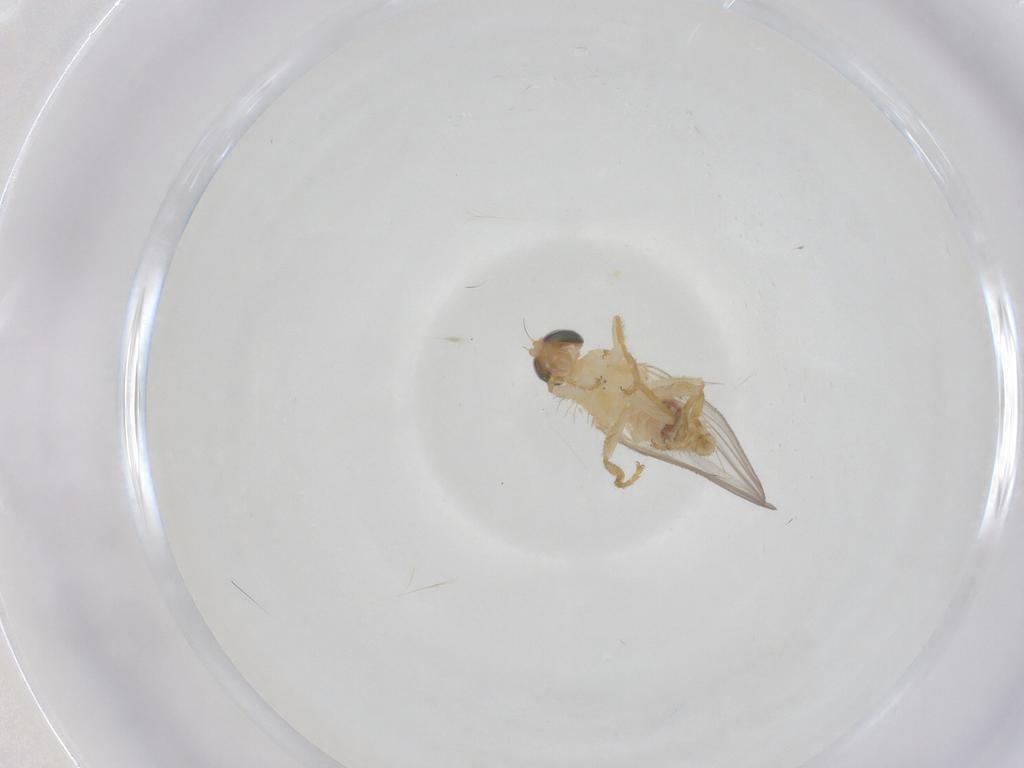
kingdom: Animalia
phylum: Arthropoda
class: Insecta
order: Diptera
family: Chyromyidae
